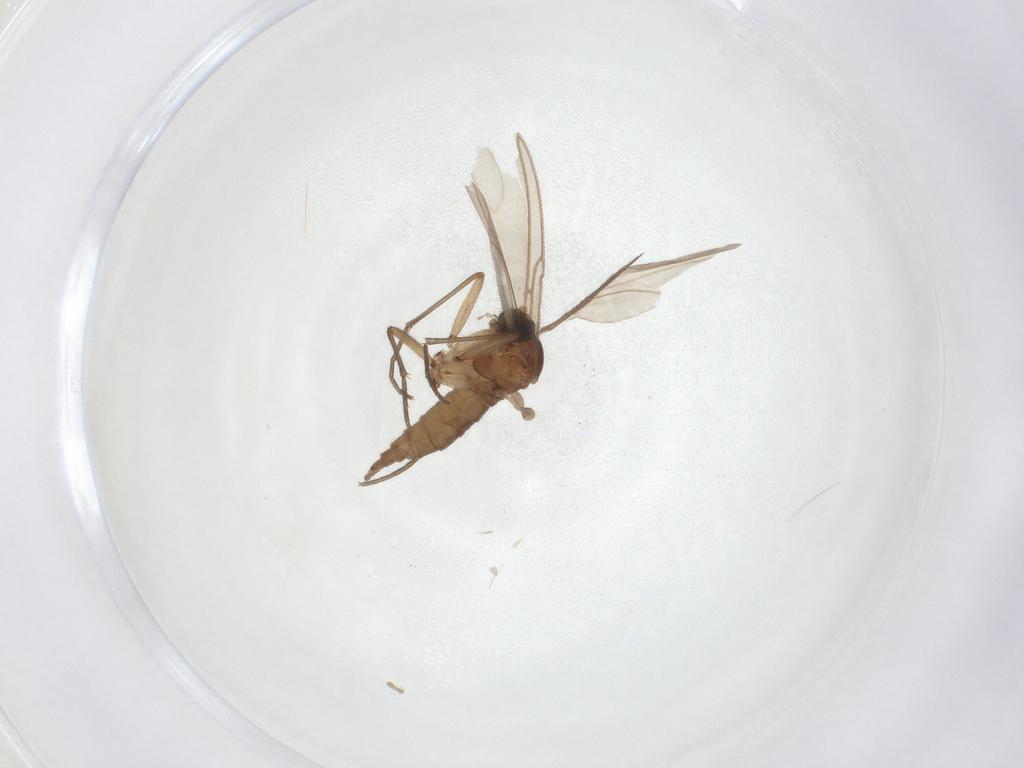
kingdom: Animalia
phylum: Arthropoda
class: Insecta
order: Diptera
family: Sciaridae
